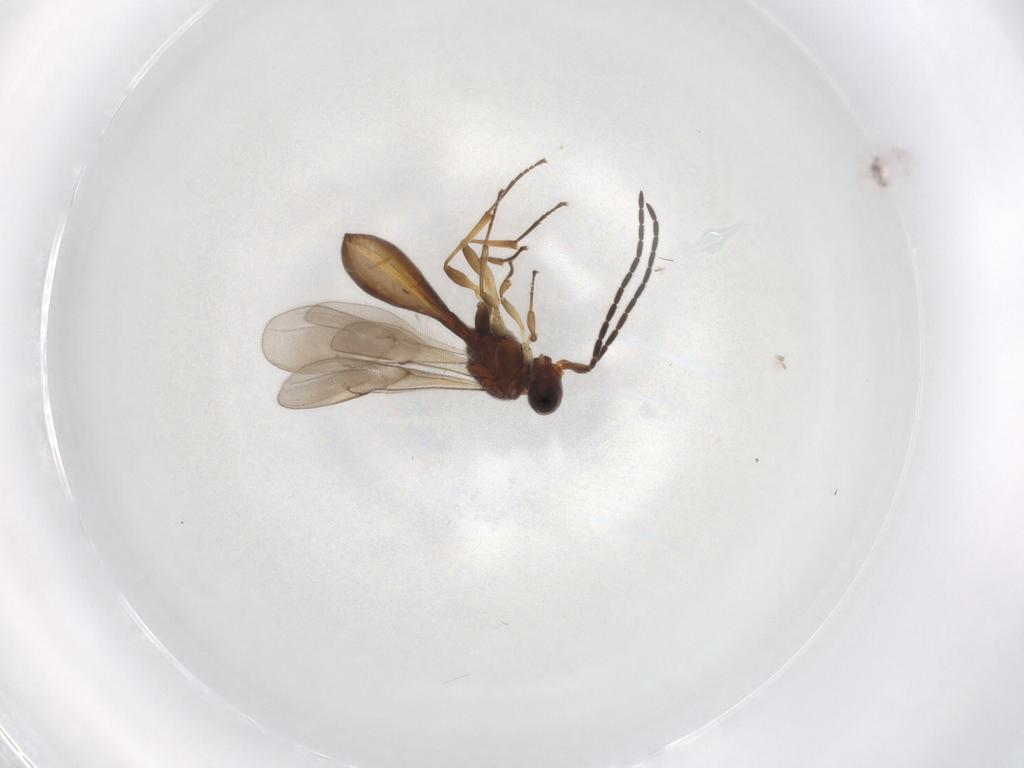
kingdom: Animalia
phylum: Arthropoda
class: Insecta
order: Hymenoptera
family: Scelionidae
